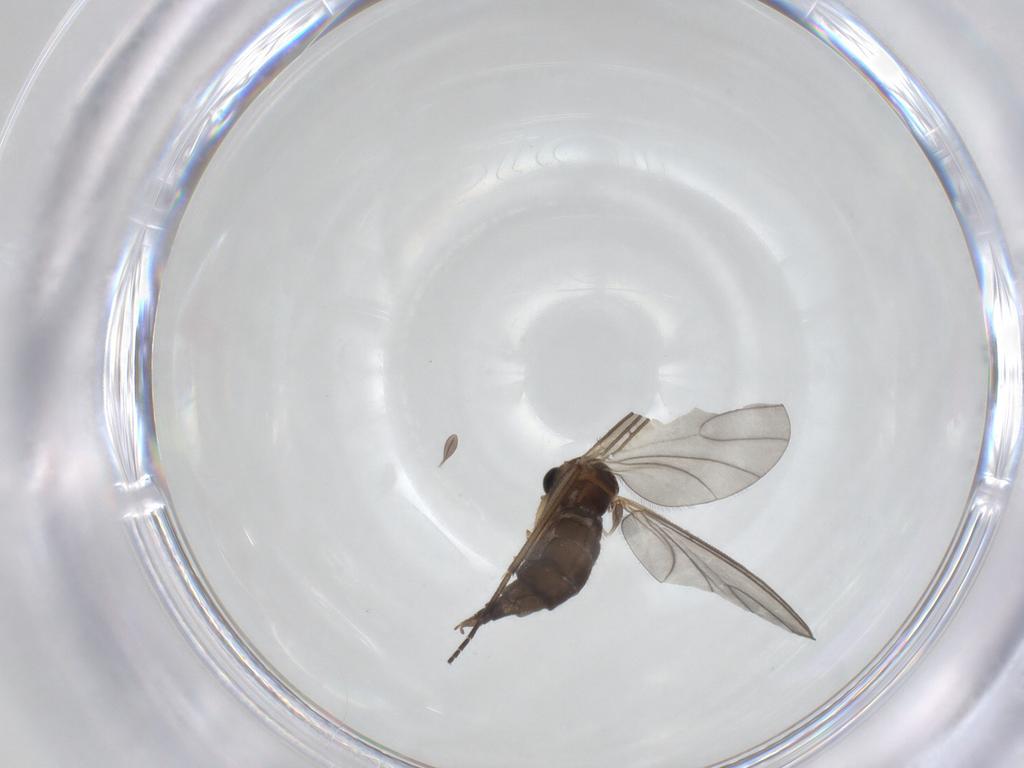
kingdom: Animalia
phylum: Arthropoda
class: Insecta
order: Diptera
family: Sciaridae
